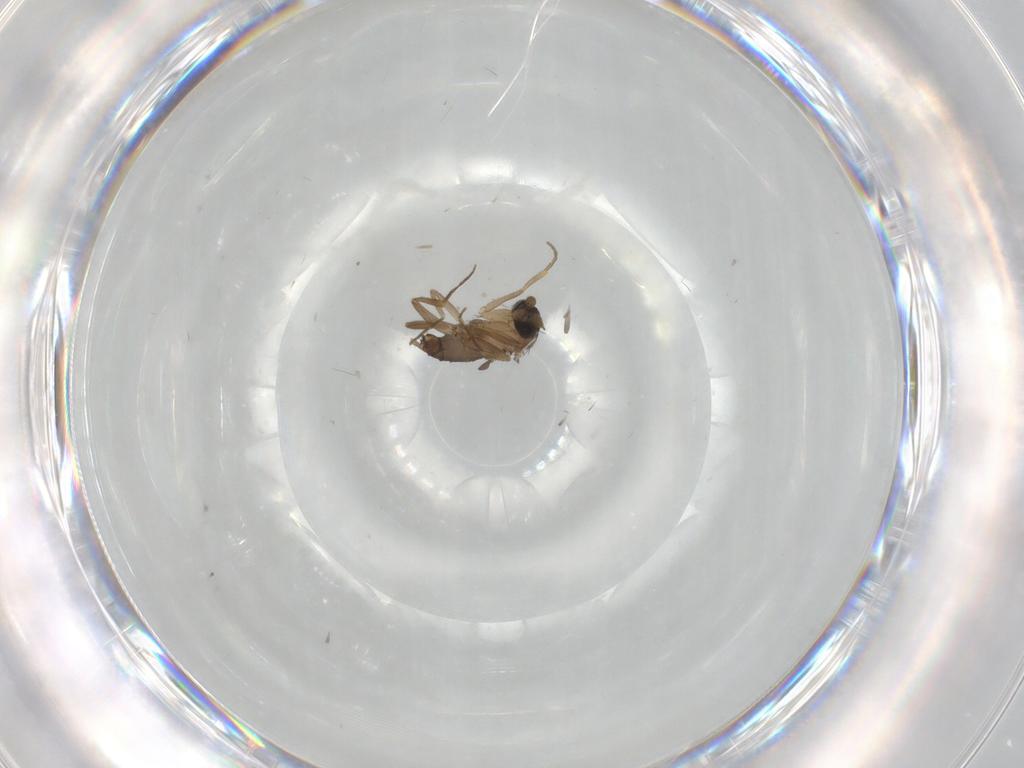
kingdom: Animalia
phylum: Arthropoda
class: Insecta
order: Diptera
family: Phoridae
